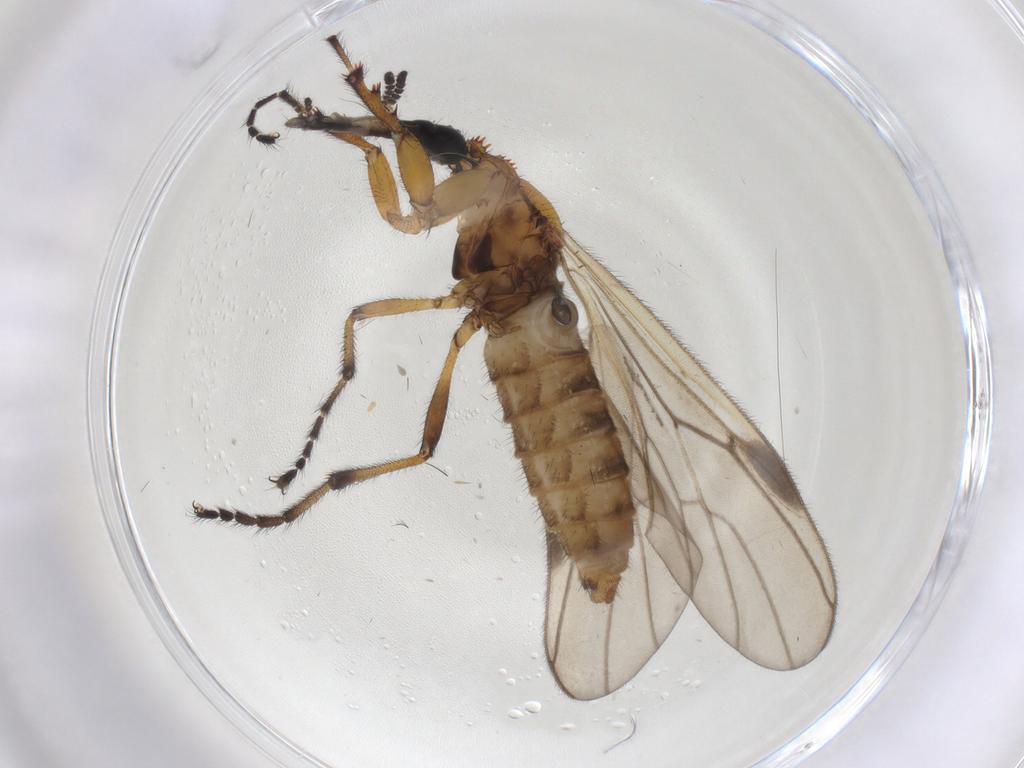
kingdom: Animalia
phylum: Arthropoda
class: Insecta
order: Diptera
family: Bibionidae
